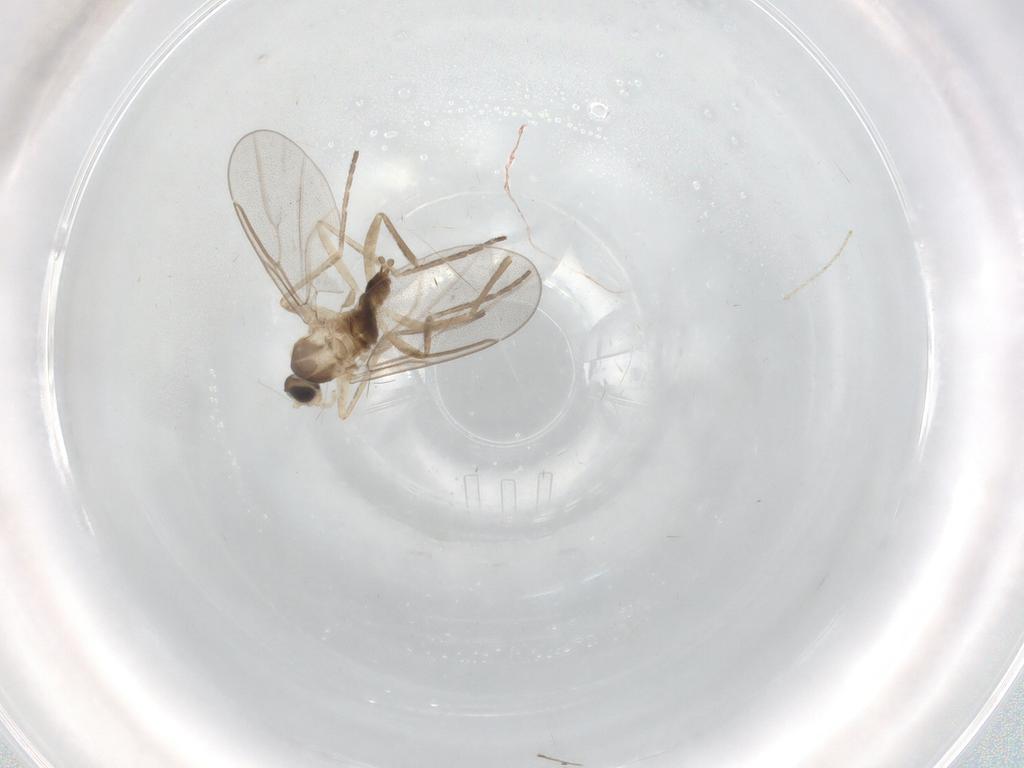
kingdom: Animalia
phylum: Arthropoda
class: Insecta
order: Diptera
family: Cecidomyiidae
